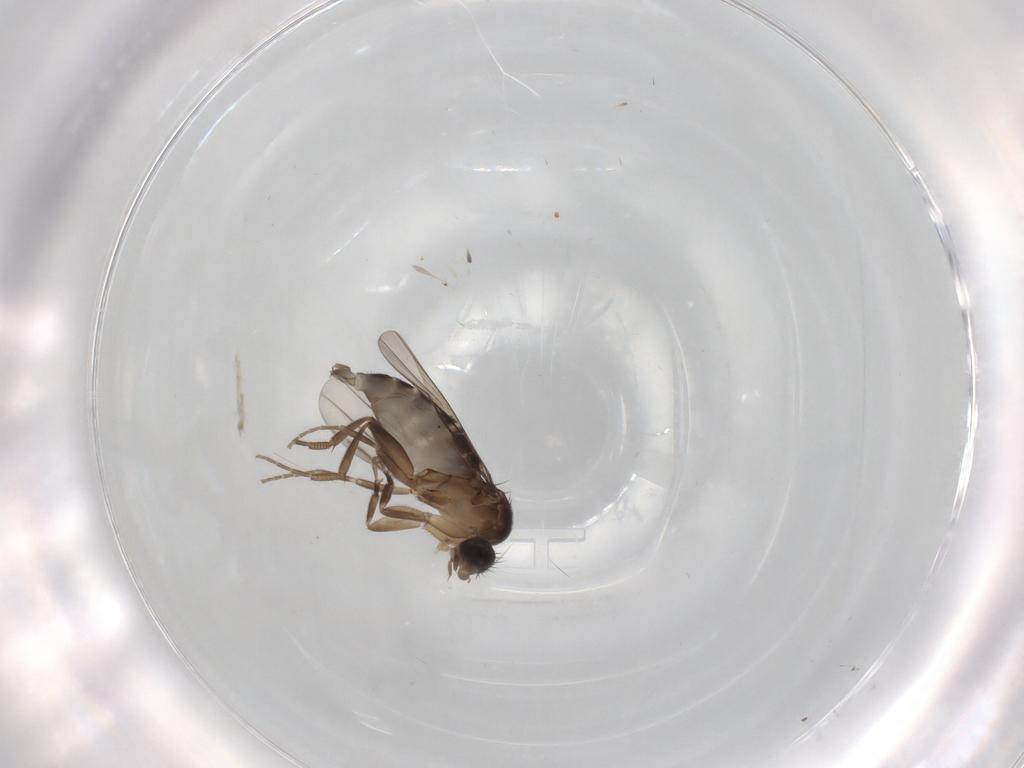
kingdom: Animalia
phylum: Arthropoda
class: Insecta
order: Diptera
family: Phoridae
